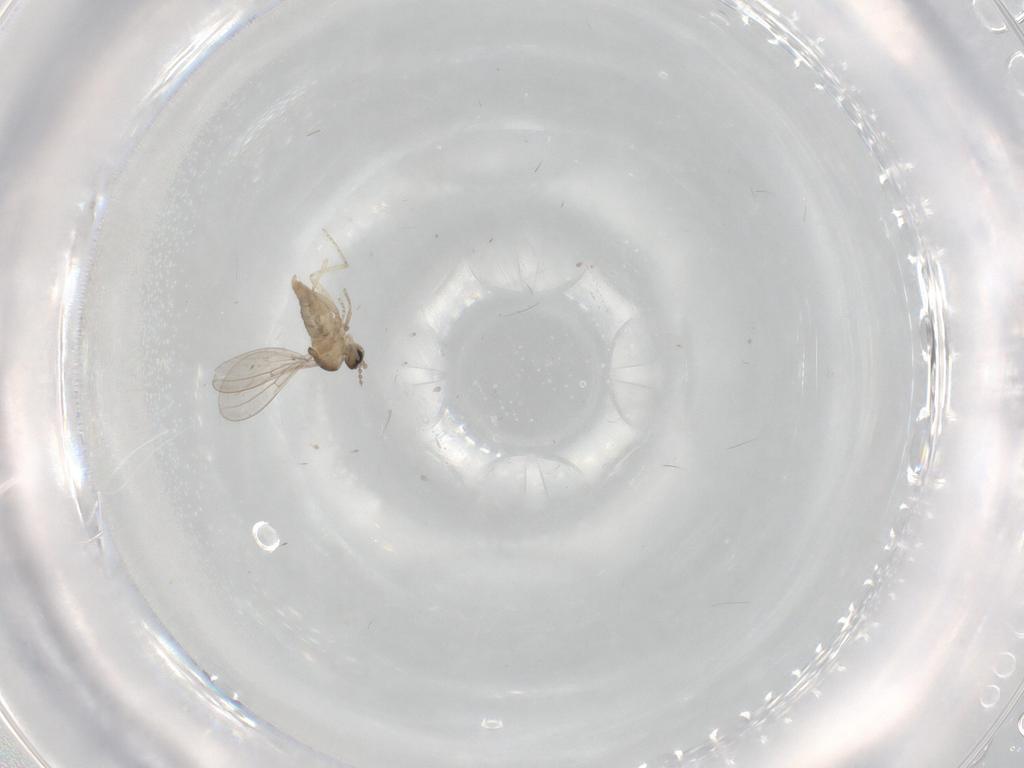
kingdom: Animalia
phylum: Arthropoda
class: Insecta
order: Diptera
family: Cecidomyiidae
